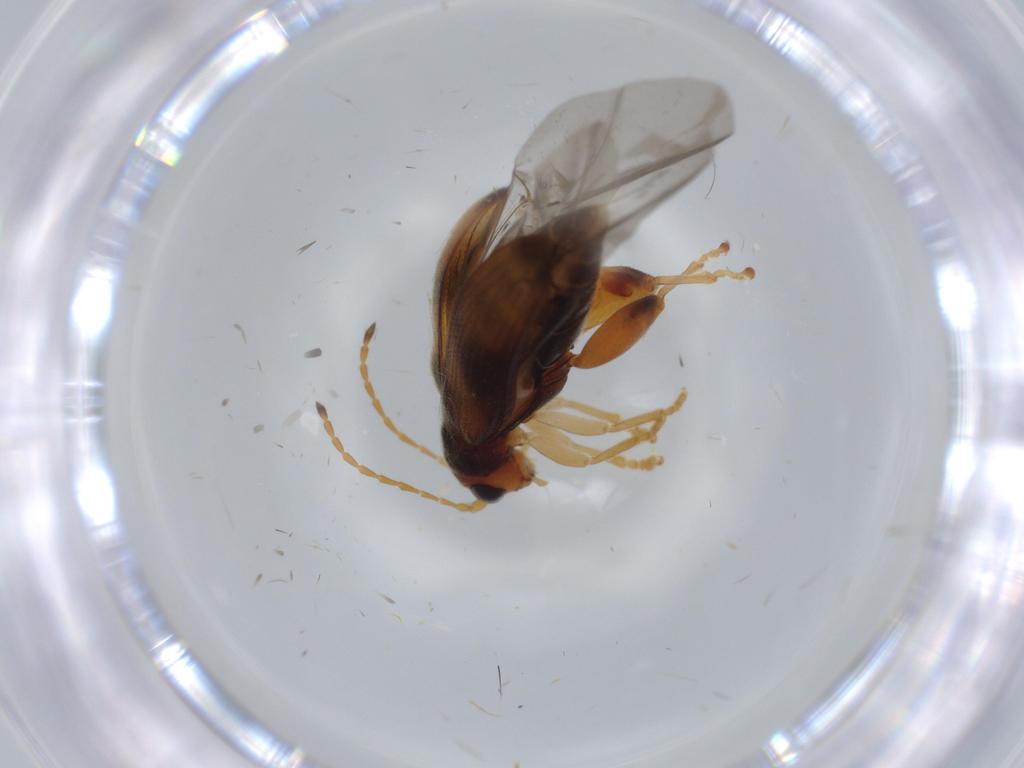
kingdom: Animalia
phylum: Arthropoda
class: Insecta
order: Coleoptera
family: Chrysomelidae
